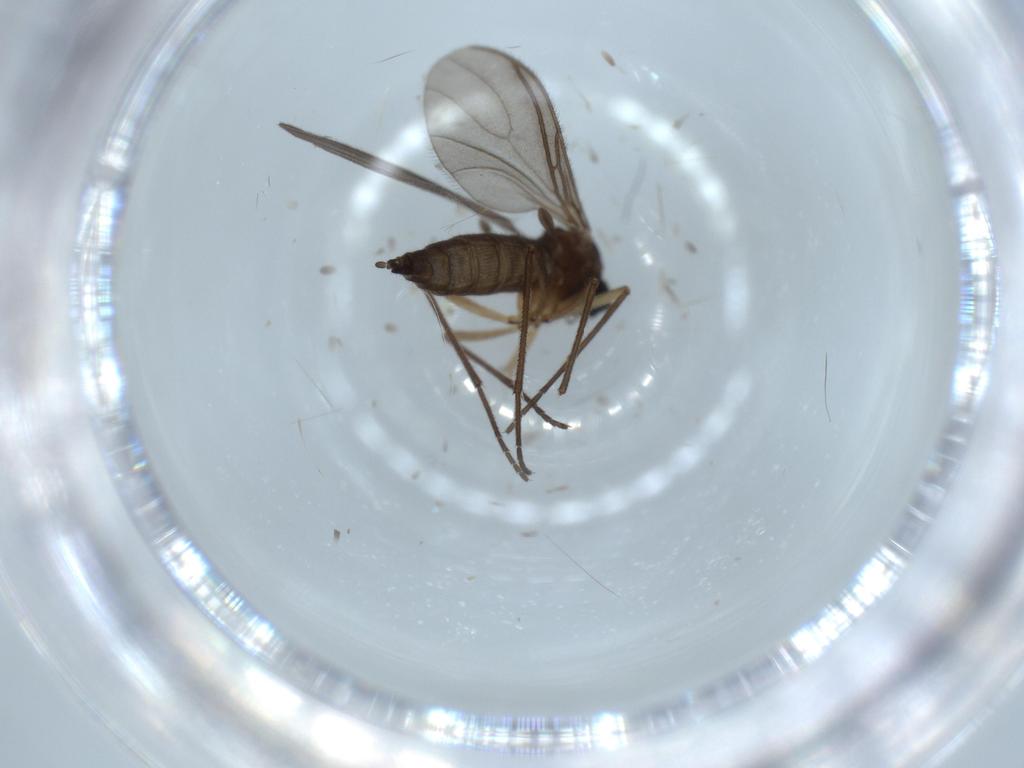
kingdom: Animalia
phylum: Arthropoda
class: Insecta
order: Diptera
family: Sciaridae
